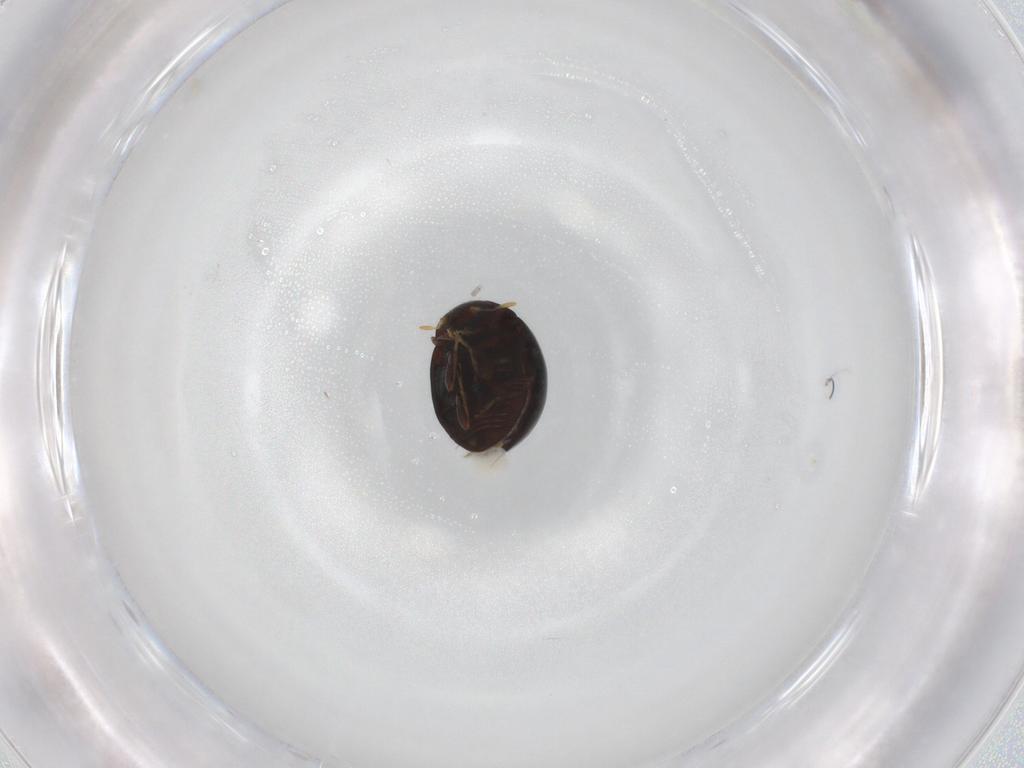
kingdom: Animalia
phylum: Arthropoda
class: Insecta
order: Coleoptera
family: Coccinellidae
